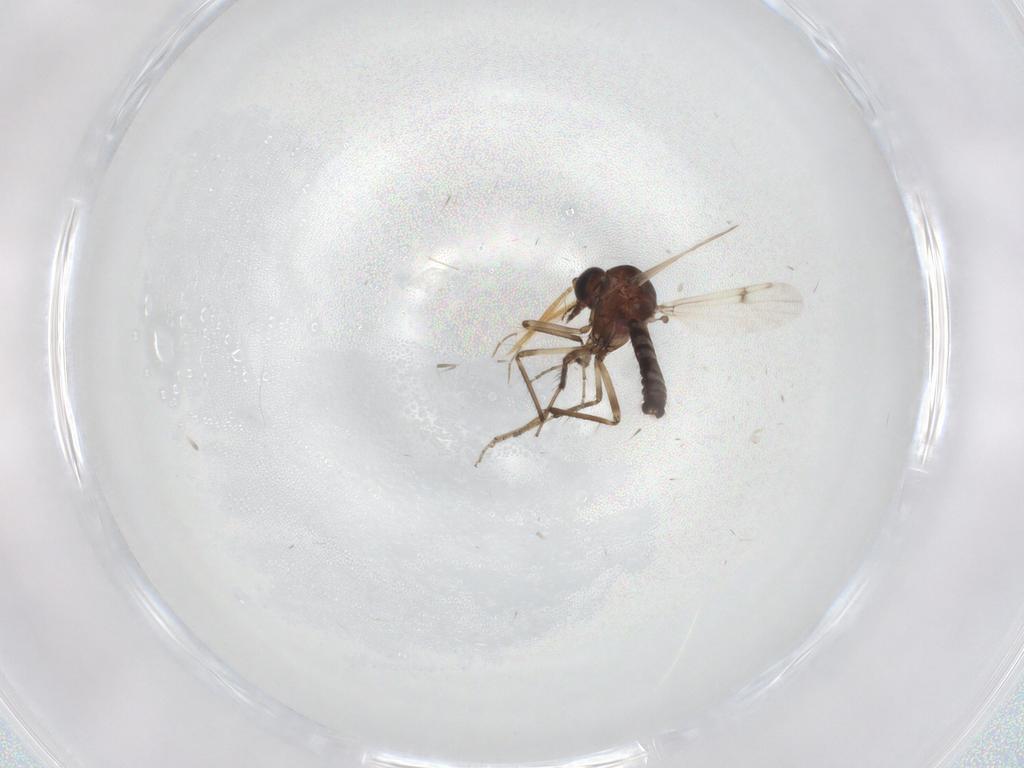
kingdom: Animalia
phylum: Arthropoda
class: Insecta
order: Diptera
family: Ceratopogonidae
